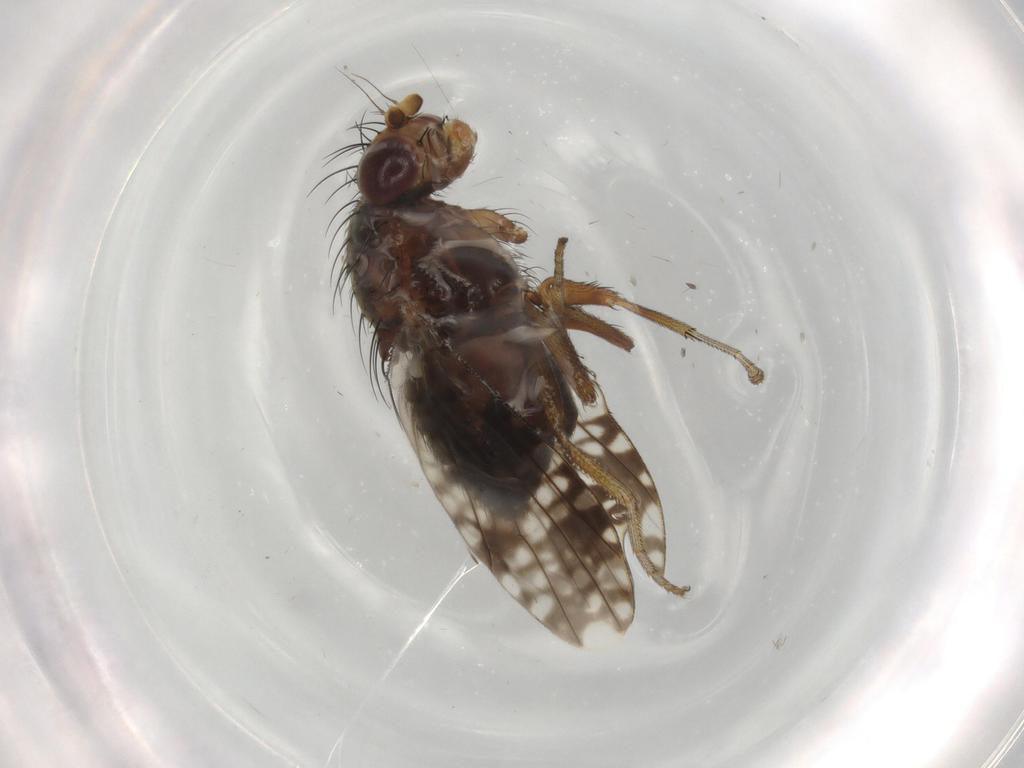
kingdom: Animalia
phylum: Arthropoda
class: Insecta
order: Diptera
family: Tephritidae
